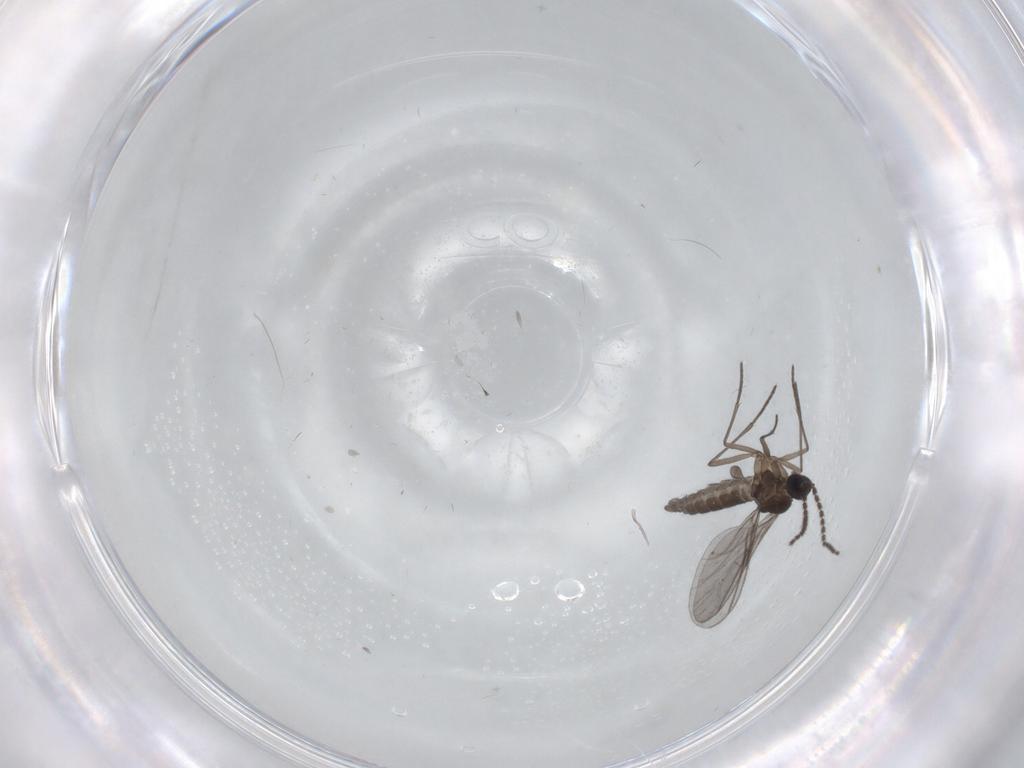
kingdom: Animalia
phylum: Arthropoda
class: Insecta
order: Diptera
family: Sciaridae
